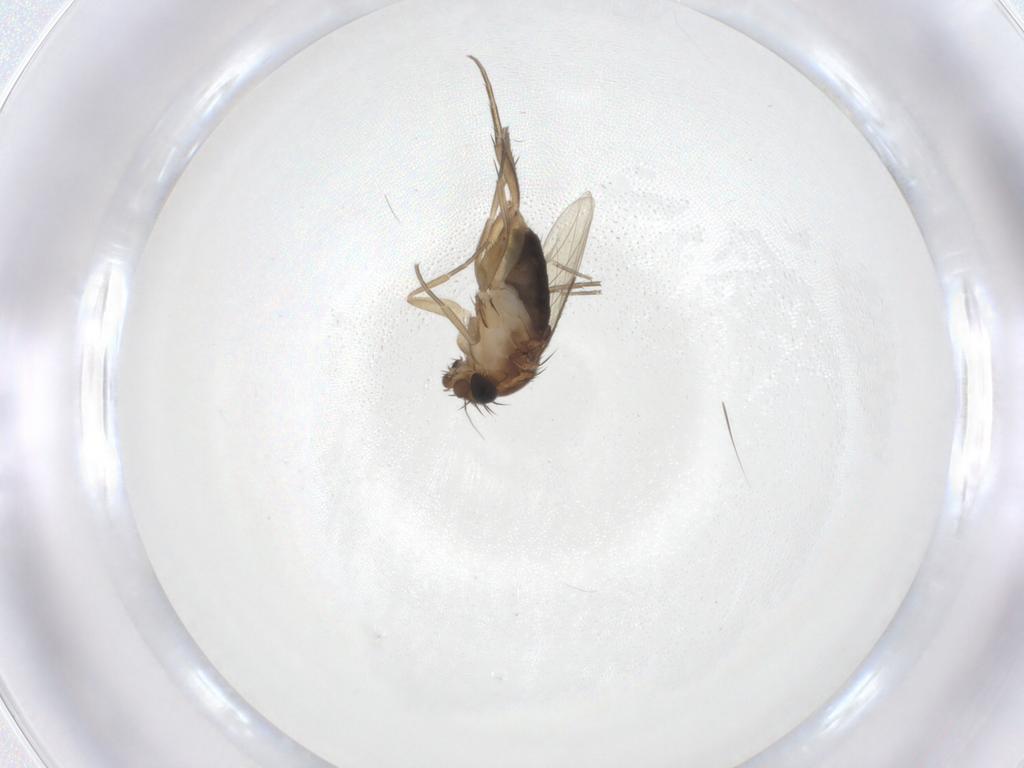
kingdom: Animalia
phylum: Arthropoda
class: Insecta
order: Diptera
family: Phoridae
